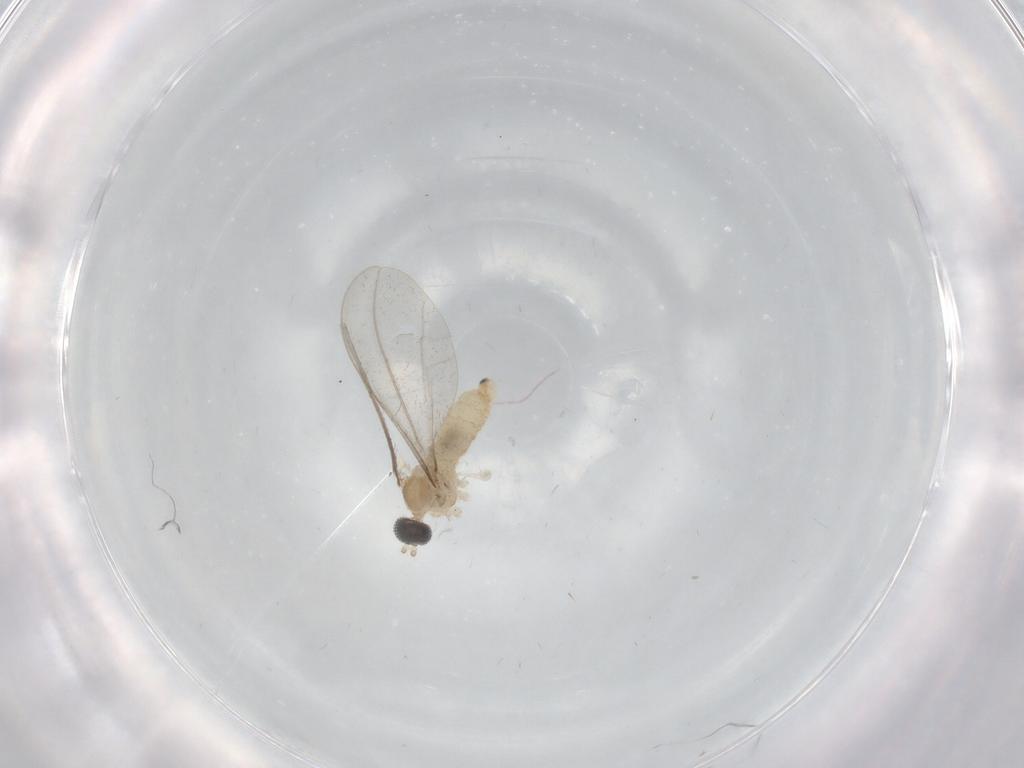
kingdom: Animalia
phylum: Arthropoda
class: Insecta
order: Diptera
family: Cecidomyiidae
